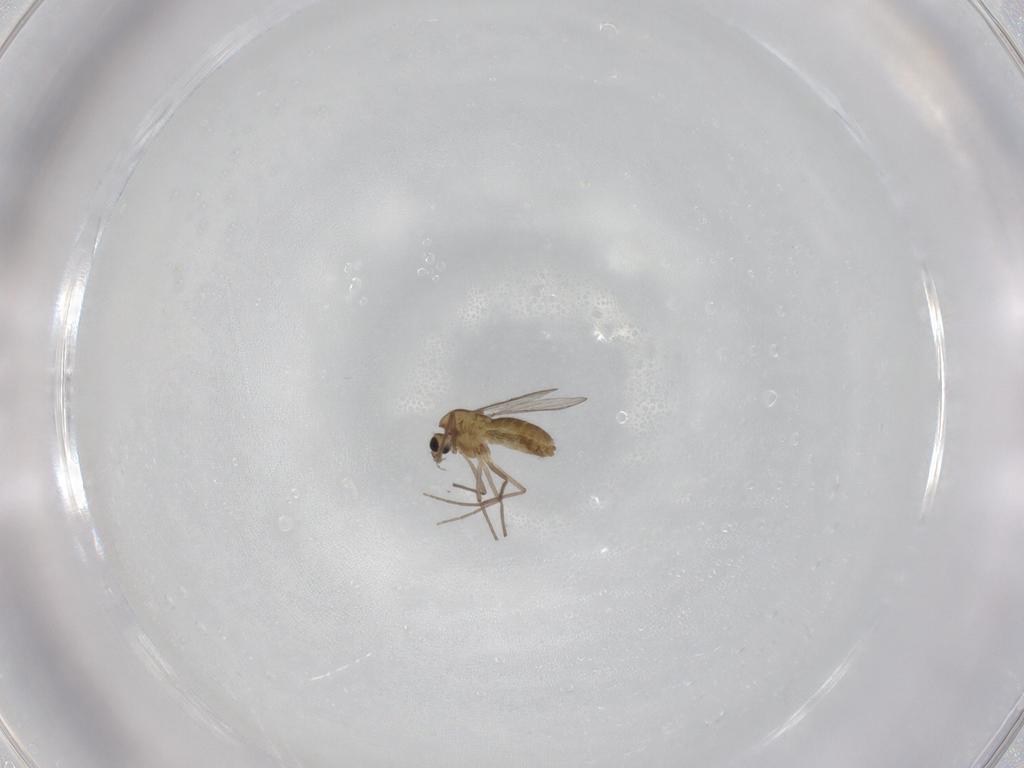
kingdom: Animalia
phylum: Arthropoda
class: Insecta
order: Diptera
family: Chironomidae
